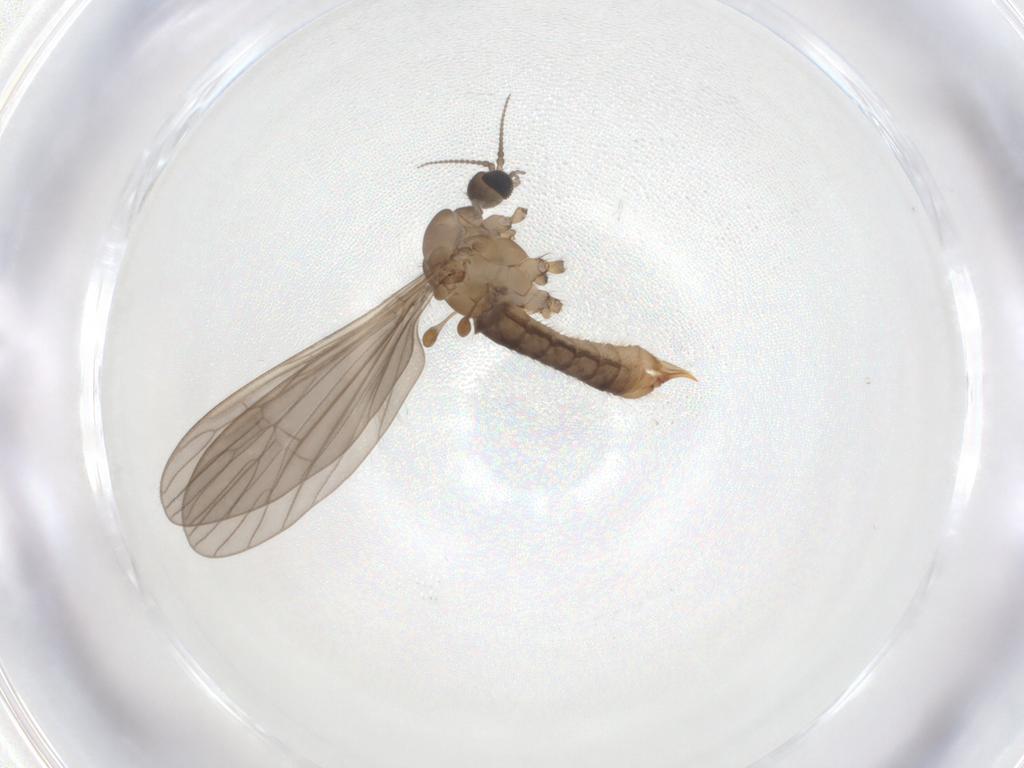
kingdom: Animalia
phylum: Arthropoda
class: Insecta
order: Diptera
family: Limoniidae
